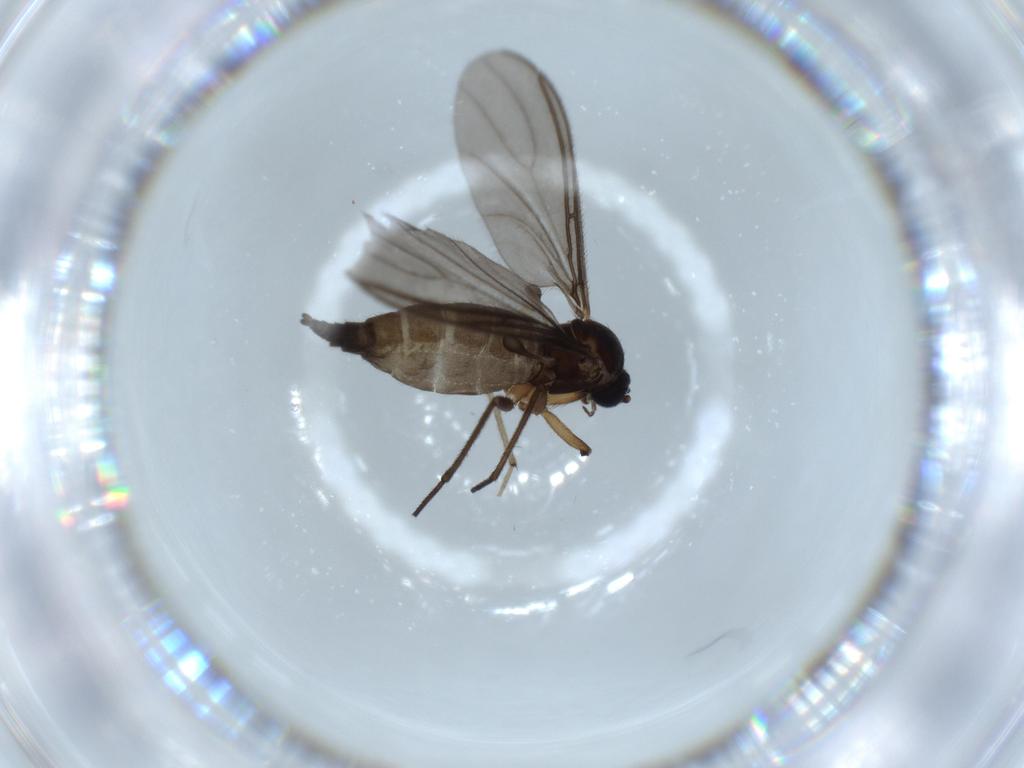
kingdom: Animalia
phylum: Arthropoda
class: Insecta
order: Diptera
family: Chironomidae
